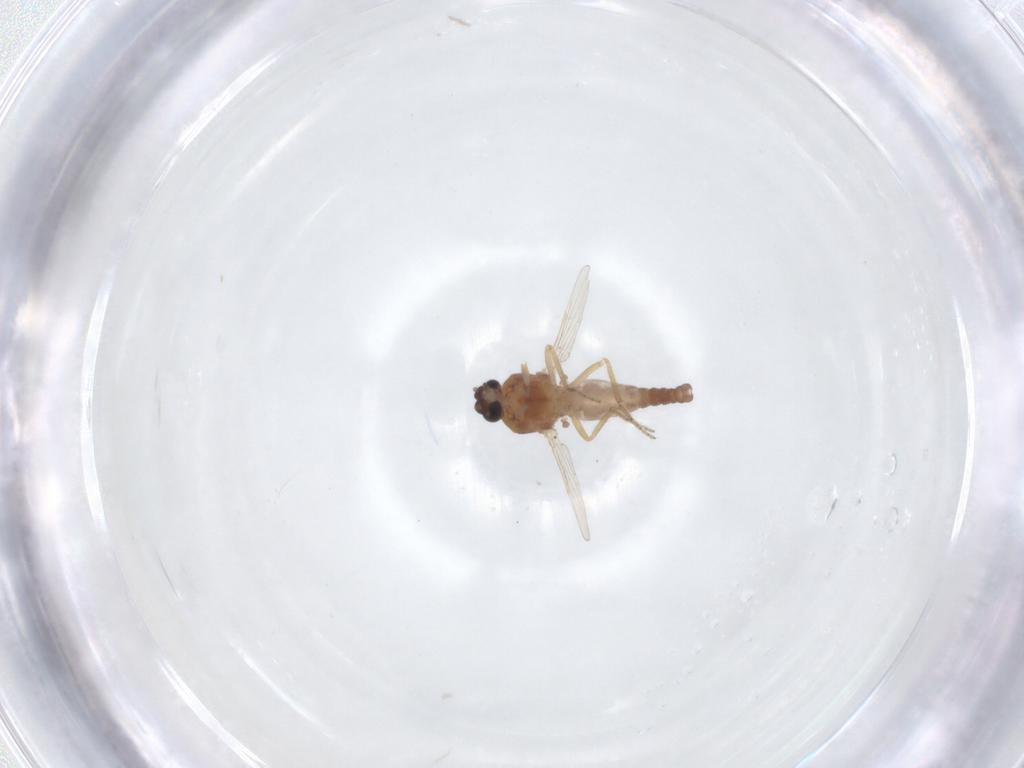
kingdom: Animalia
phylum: Arthropoda
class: Insecta
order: Diptera
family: Ceratopogonidae
